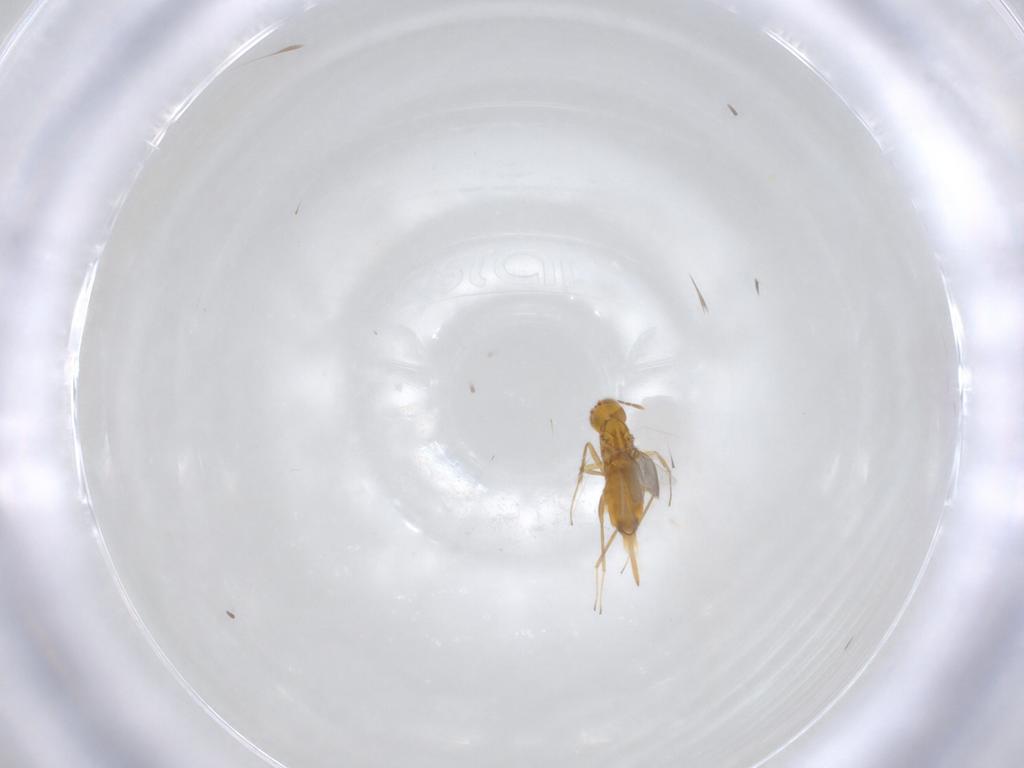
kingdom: Animalia
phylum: Arthropoda
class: Insecta
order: Hymenoptera
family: Aphelinidae
